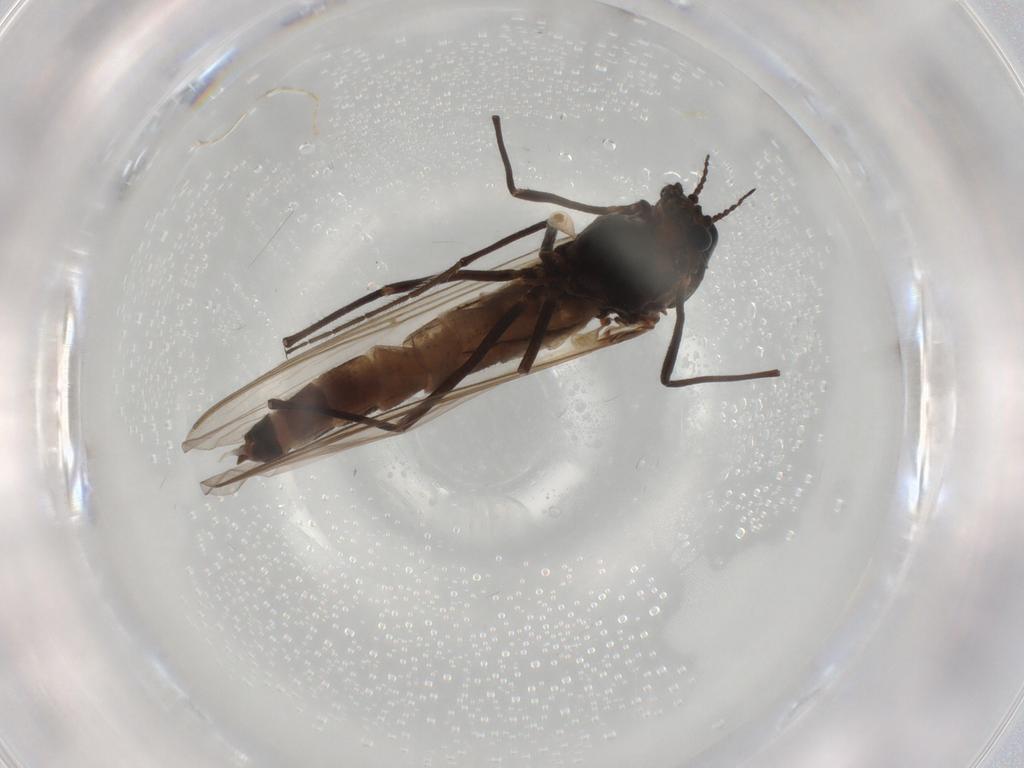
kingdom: Animalia
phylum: Arthropoda
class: Insecta
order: Diptera
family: Chironomidae
